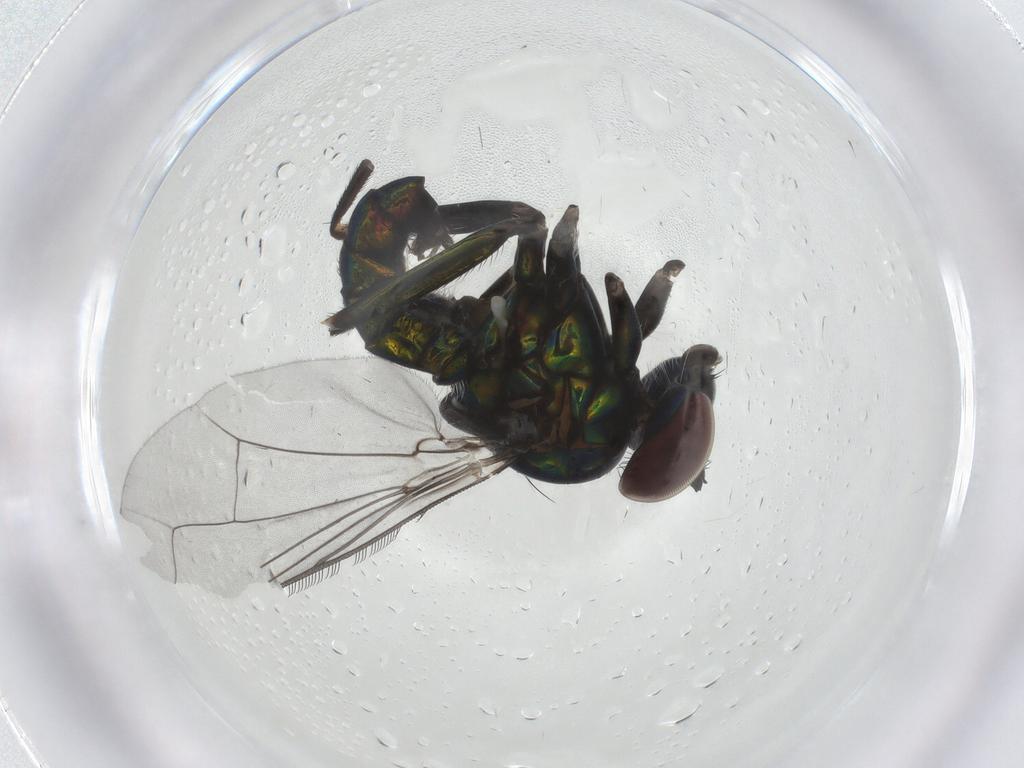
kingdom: Animalia
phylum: Arthropoda
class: Insecta
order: Diptera
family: Dolichopodidae
